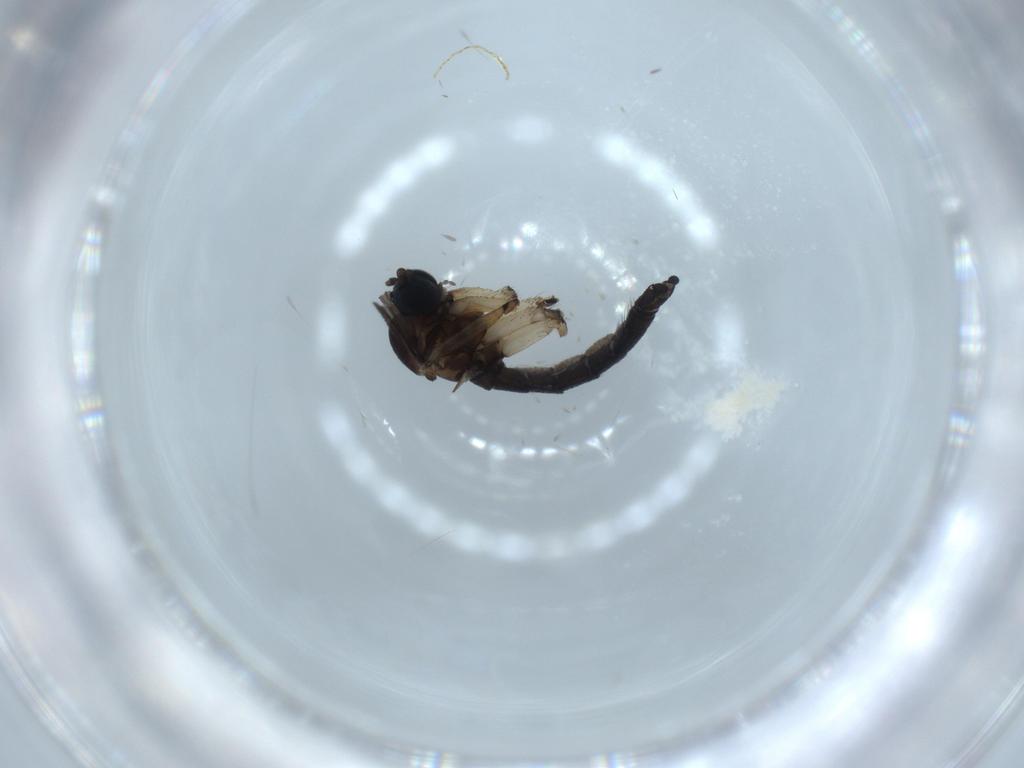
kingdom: Animalia
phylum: Arthropoda
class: Insecta
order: Diptera
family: Sciaridae
